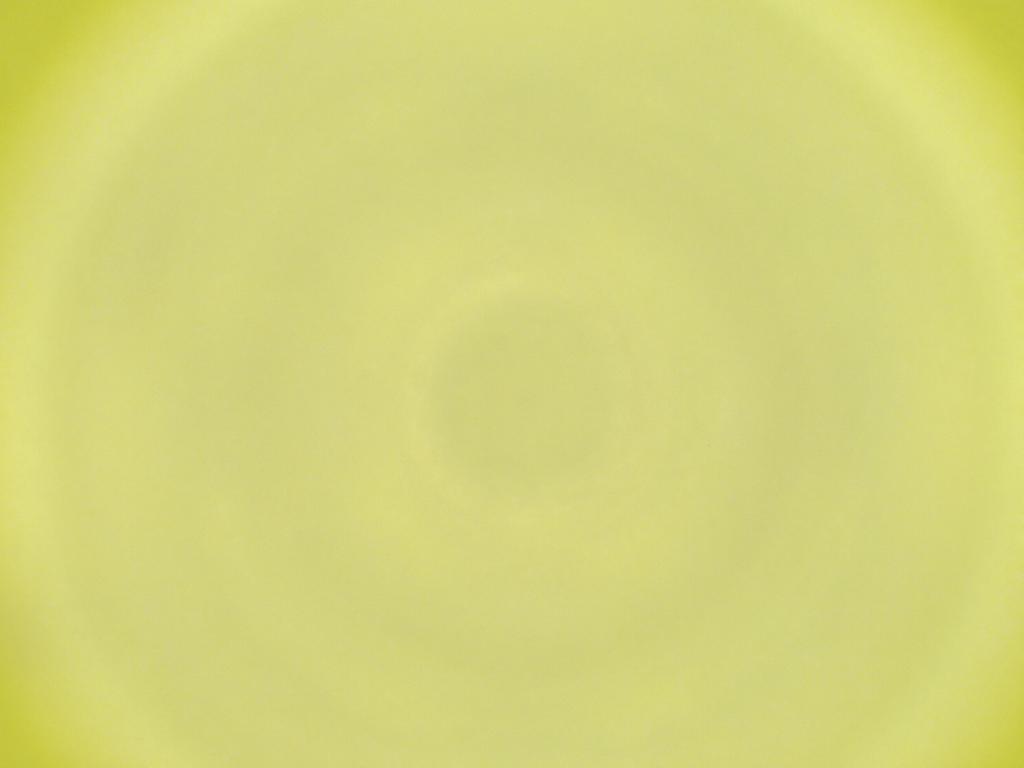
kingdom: Animalia
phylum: Arthropoda
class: Insecta
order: Diptera
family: Cecidomyiidae
